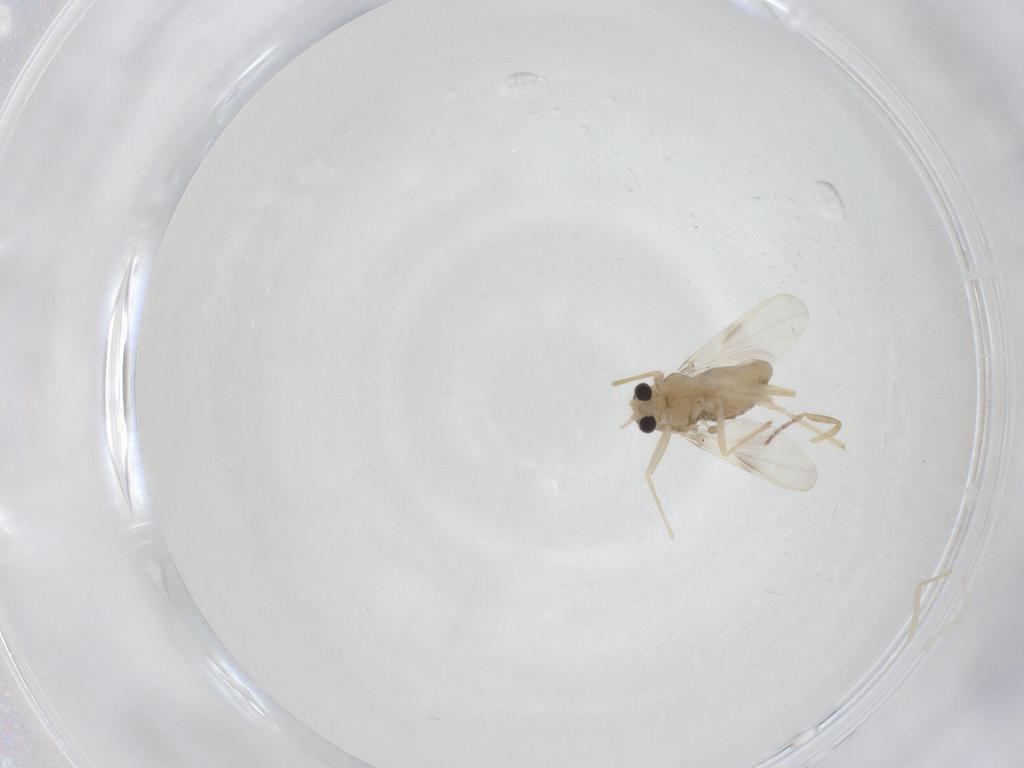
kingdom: Animalia
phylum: Arthropoda
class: Insecta
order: Diptera
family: Chironomidae
